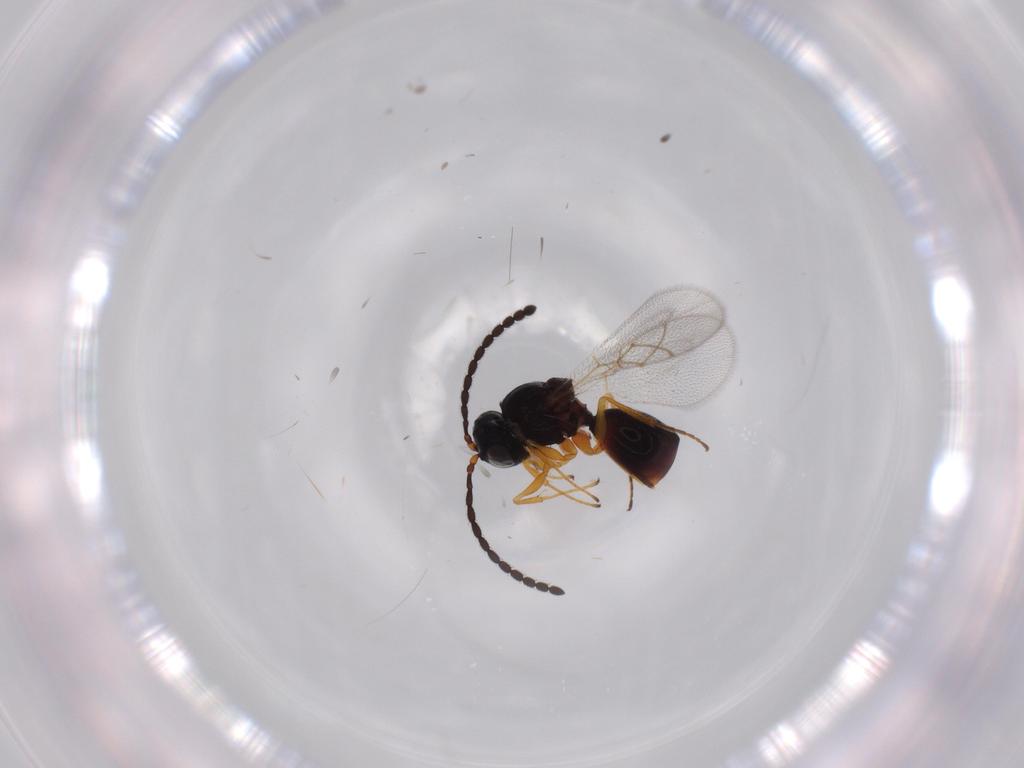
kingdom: Animalia
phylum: Arthropoda
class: Insecta
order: Hymenoptera
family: Figitidae
